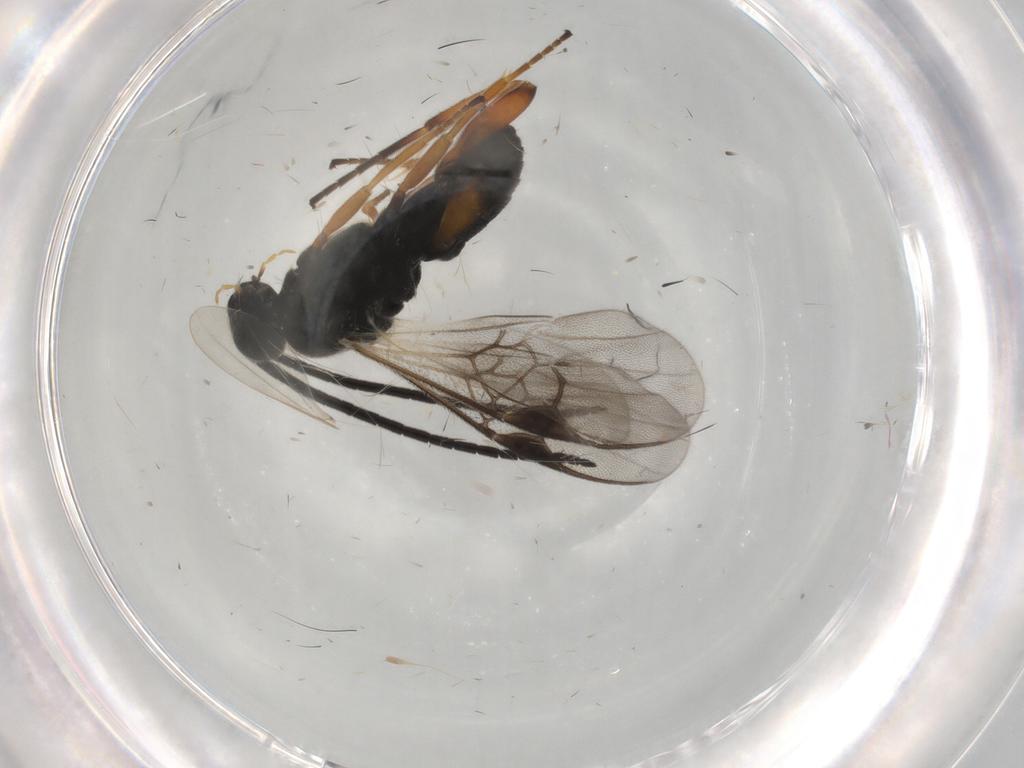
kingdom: Animalia
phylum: Arthropoda
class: Insecta
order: Hymenoptera
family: Braconidae
